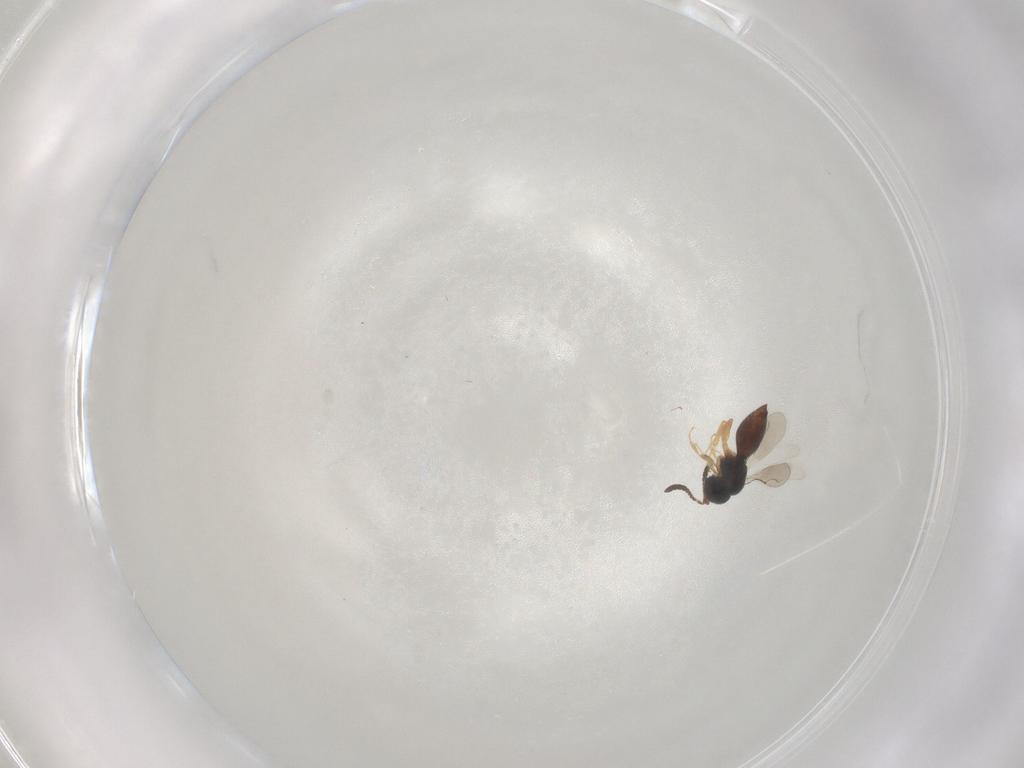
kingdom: Animalia
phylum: Arthropoda
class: Insecta
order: Hymenoptera
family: Scelionidae
